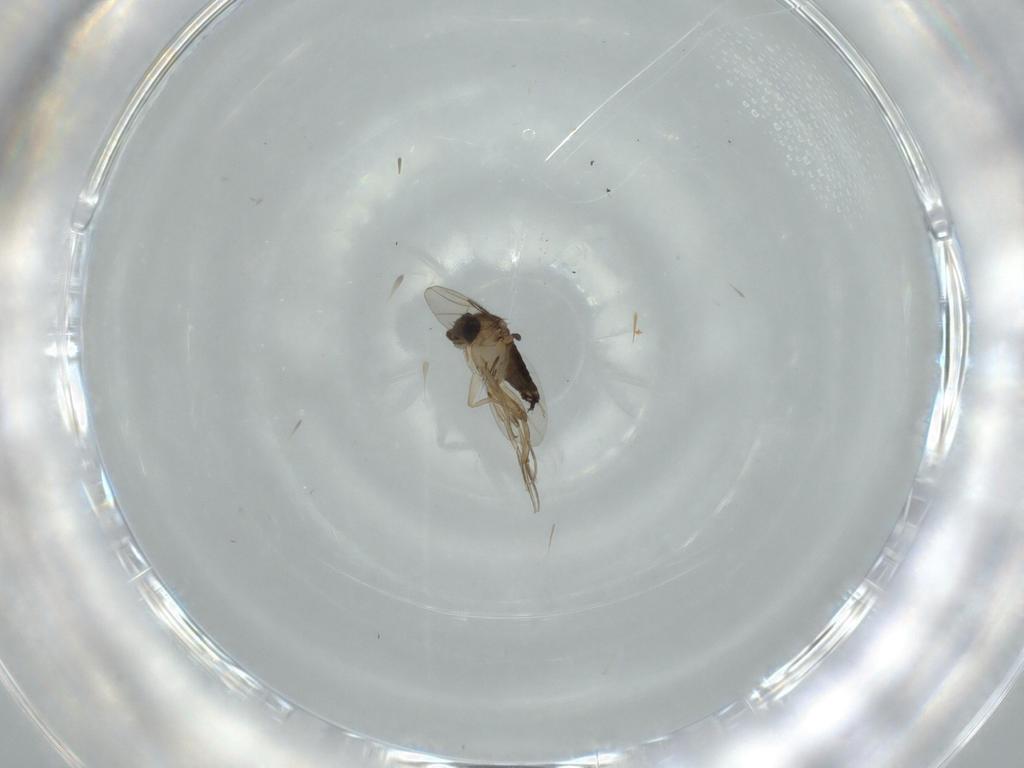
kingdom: Animalia
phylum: Arthropoda
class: Insecta
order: Diptera
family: Phoridae
